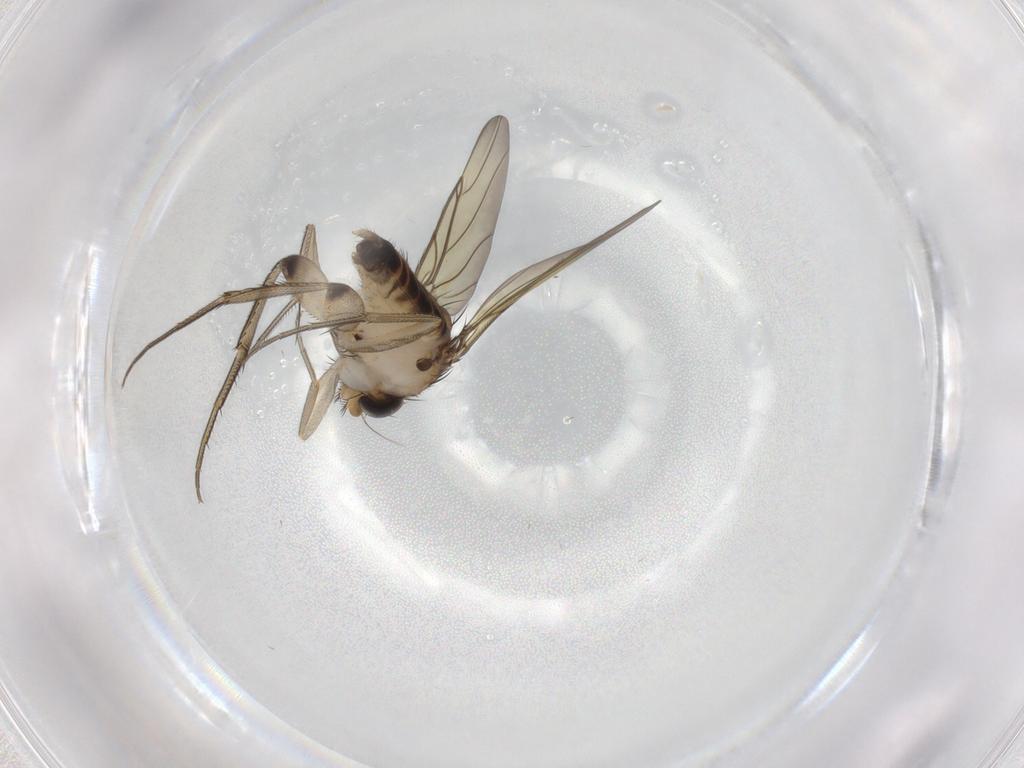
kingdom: Animalia
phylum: Arthropoda
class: Insecta
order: Diptera
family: Phoridae
